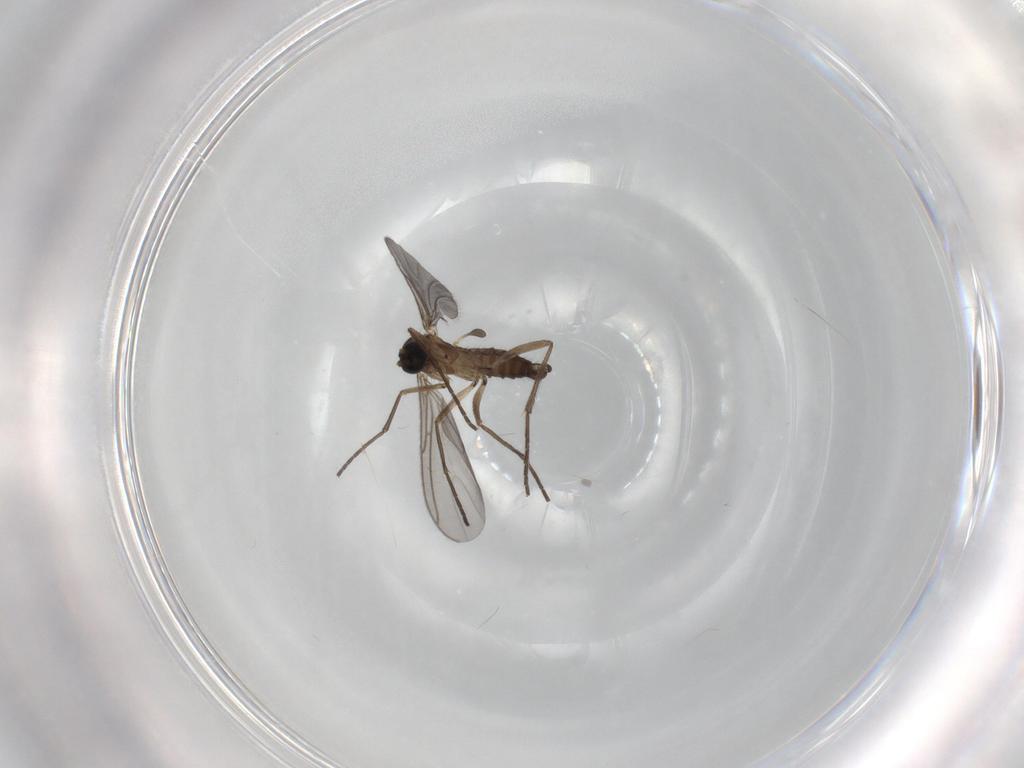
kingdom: Animalia
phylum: Arthropoda
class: Insecta
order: Diptera
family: Sciaridae
